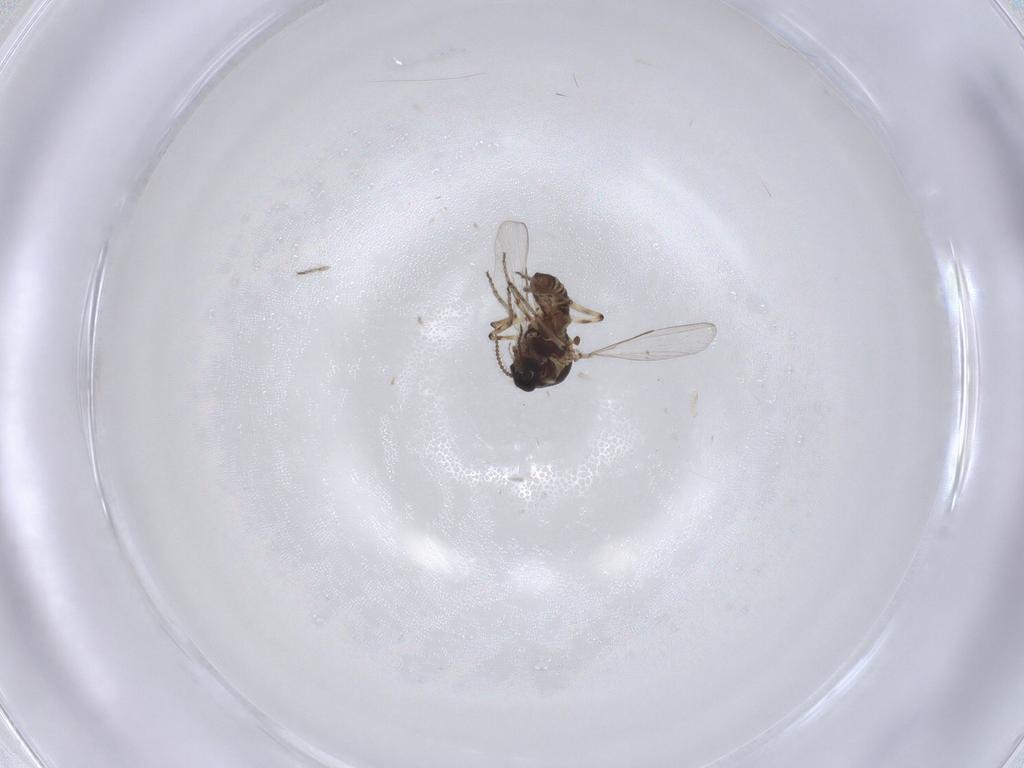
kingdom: Animalia
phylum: Arthropoda
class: Insecta
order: Diptera
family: Ceratopogonidae
